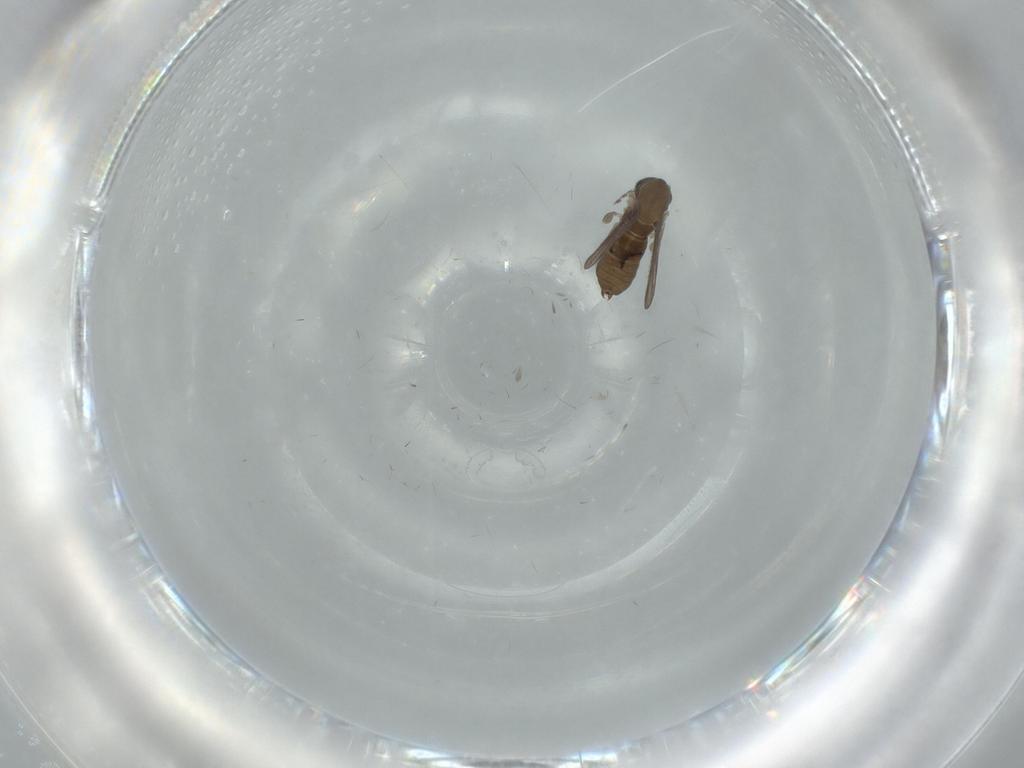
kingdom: Animalia
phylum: Arthropoda
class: Insecta
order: Diptera
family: Psychodidae
